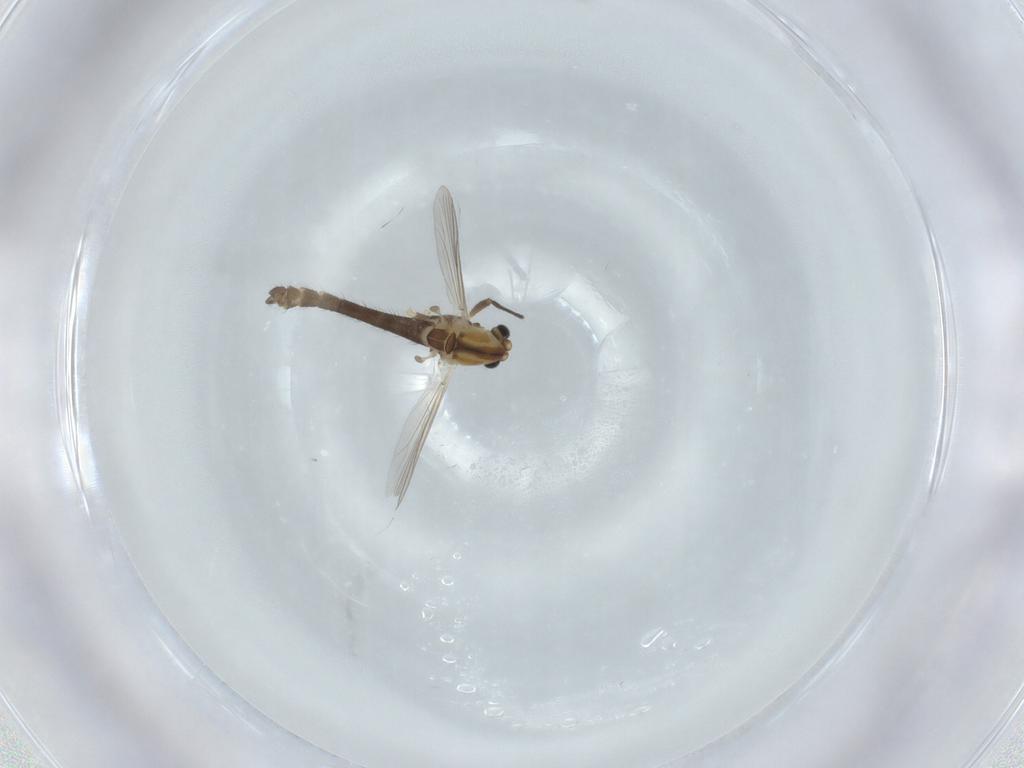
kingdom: Animalia
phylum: Arthropoda
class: Insecta
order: Diptera
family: Chironomidae
